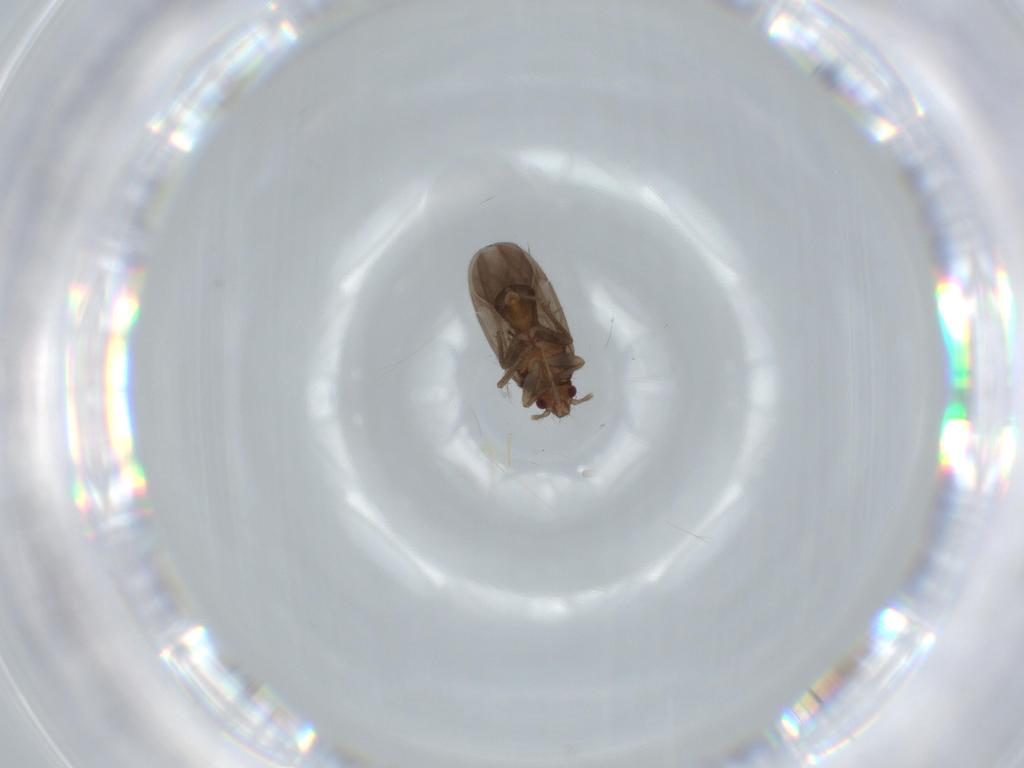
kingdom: Animalia
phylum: Arthropoda
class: Insecta
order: Hemiptera
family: Ceratocombidae
